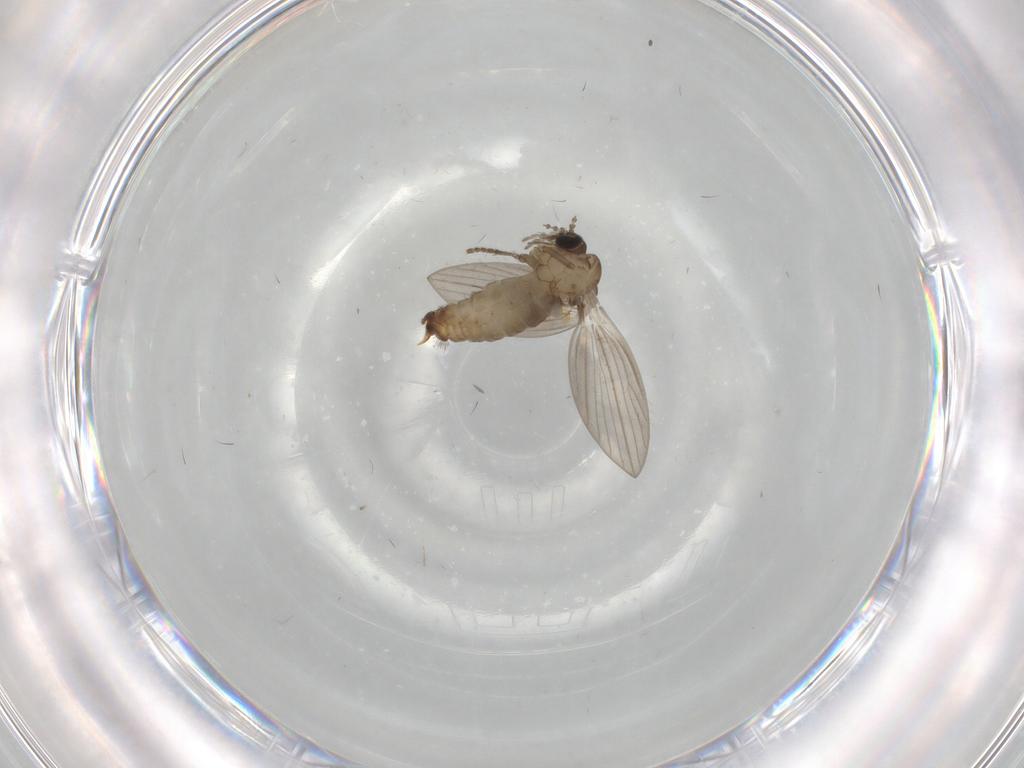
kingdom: Animalia
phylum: Arthropoda
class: Insecta
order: Diptera
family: Psychodidae
